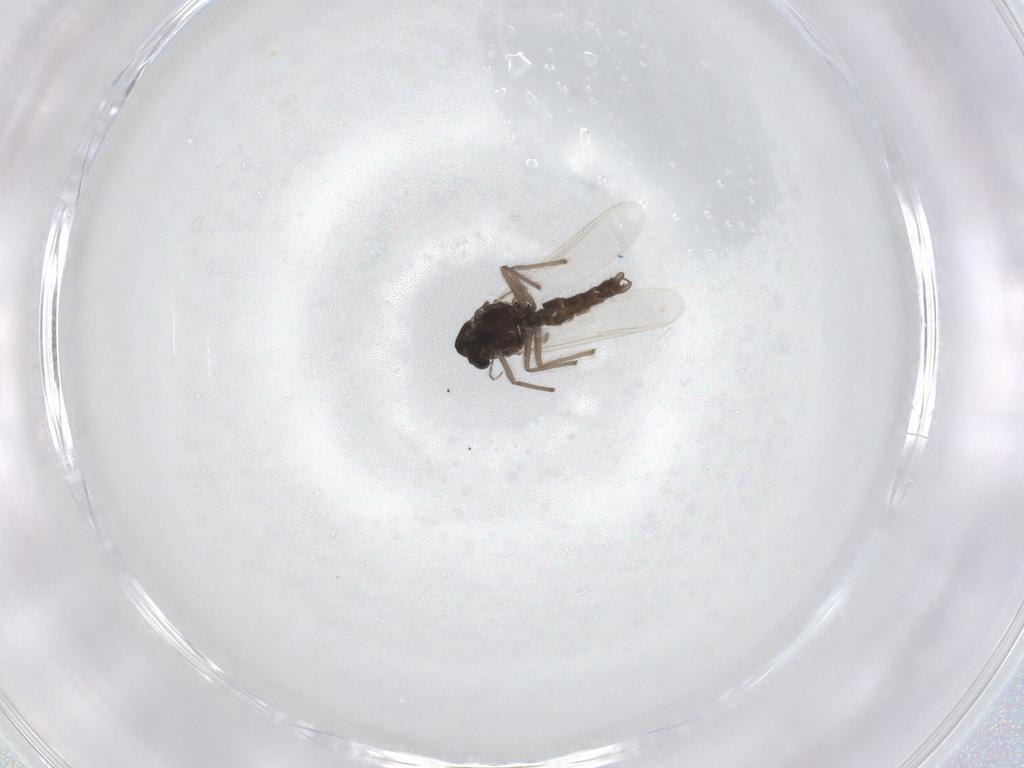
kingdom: Animalia
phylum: Arthropoda
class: Insecta
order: Diptera
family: Chironomidae
